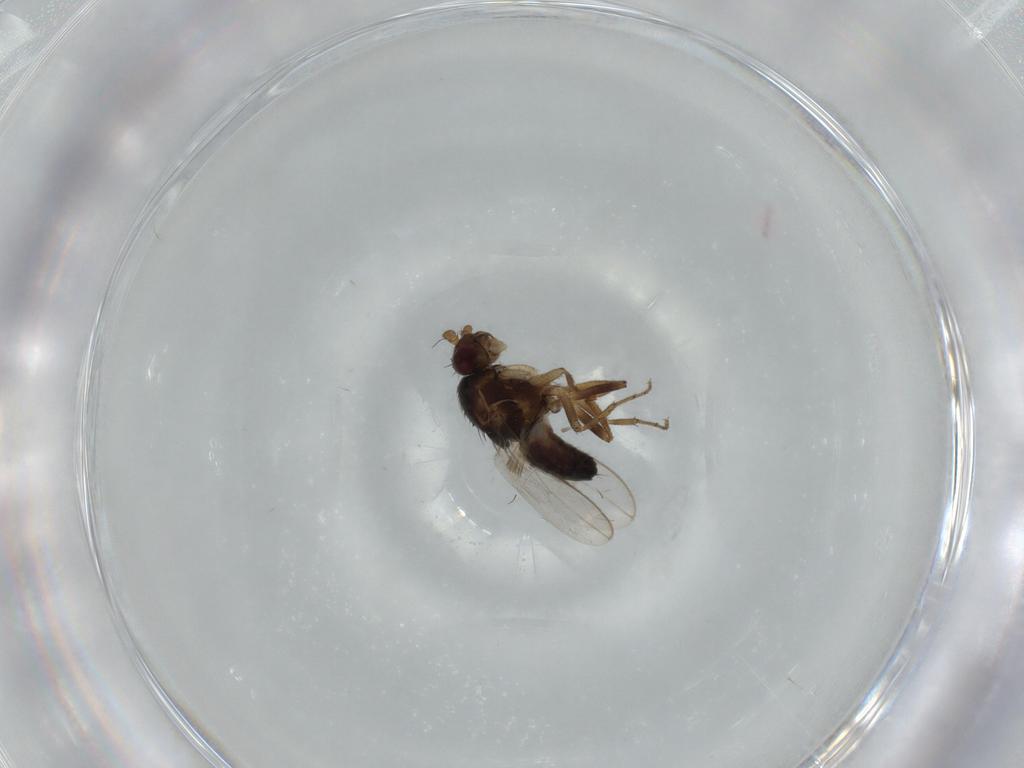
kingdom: Animalia
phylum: Arthropoda
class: Insecta
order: Diptera
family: Sphaeroceridae
